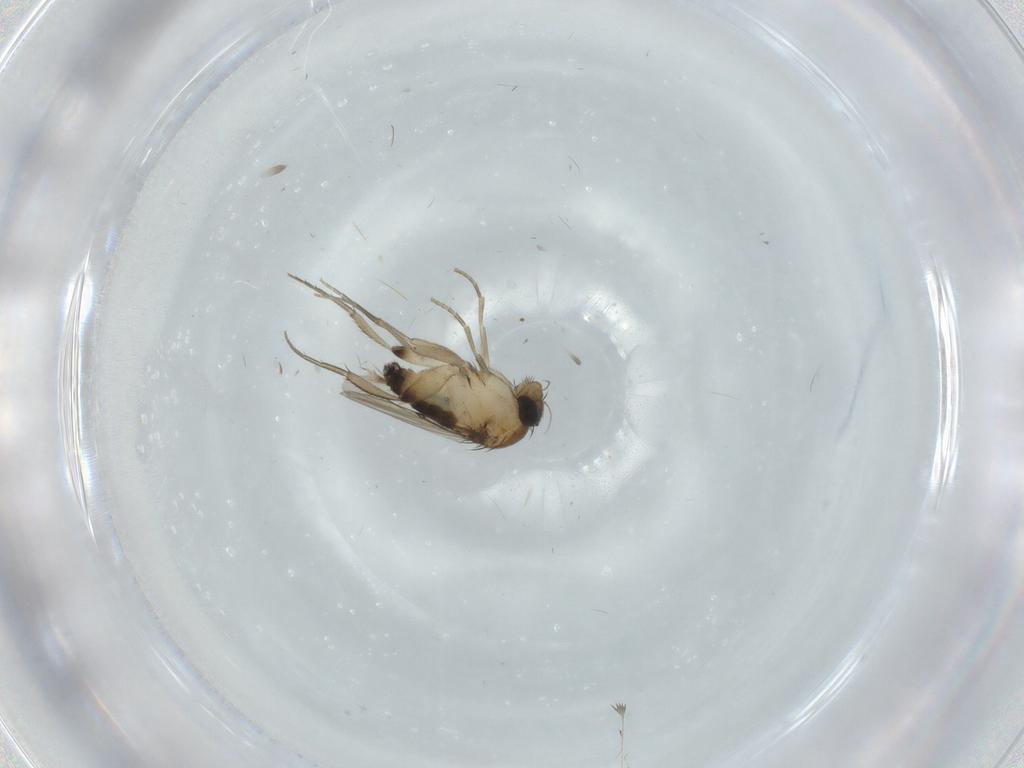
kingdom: Animalia
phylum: Arthropoda
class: Insecta
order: Diptera
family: Phoridae
